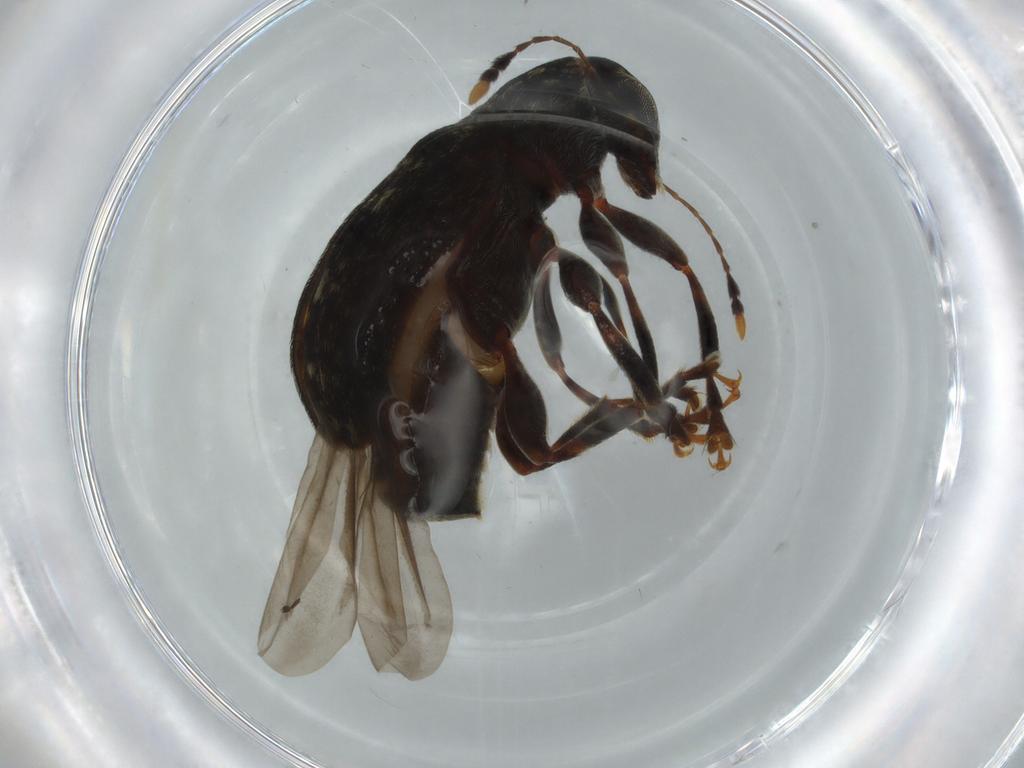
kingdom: Animalia
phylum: Arthropoda
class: Insecta
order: Coleoptera
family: Anthribidae
